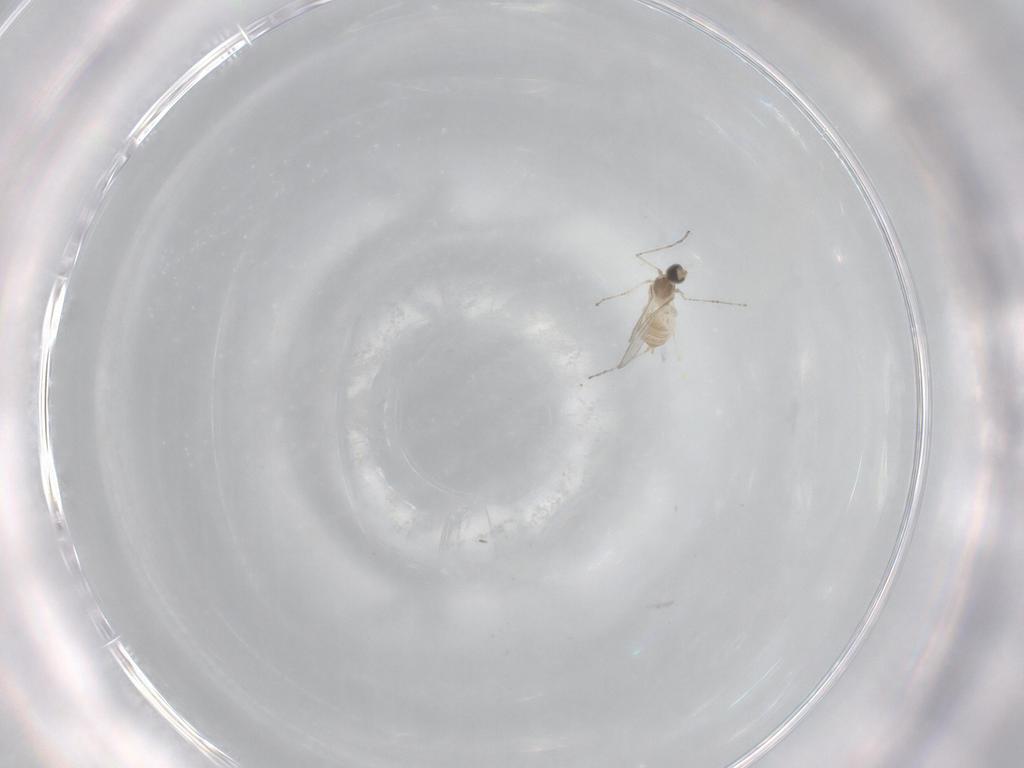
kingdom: Animalia
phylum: Arthropoda
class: Insecta
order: Diptera
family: Cecidomyiidae
